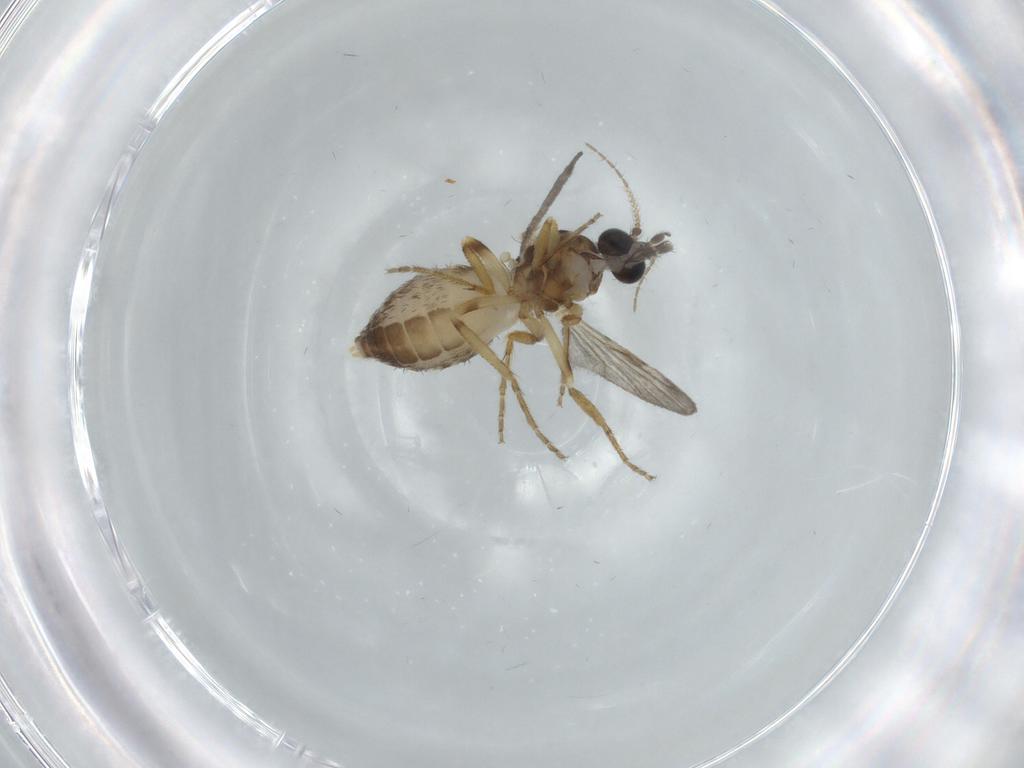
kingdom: Animalia
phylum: Arthropoda
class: Insecta
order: Diptera
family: Ceratopogonidae
